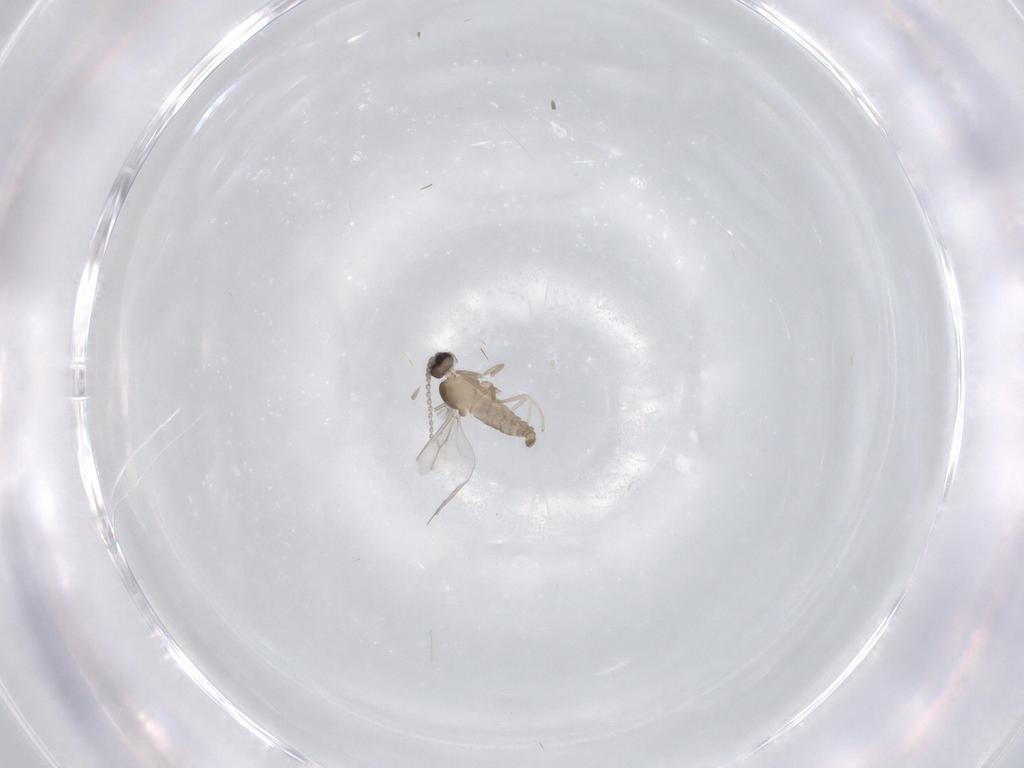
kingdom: Animalia
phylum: Arthropoda
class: Insecta
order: Diptera
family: Cecidomyiidae
